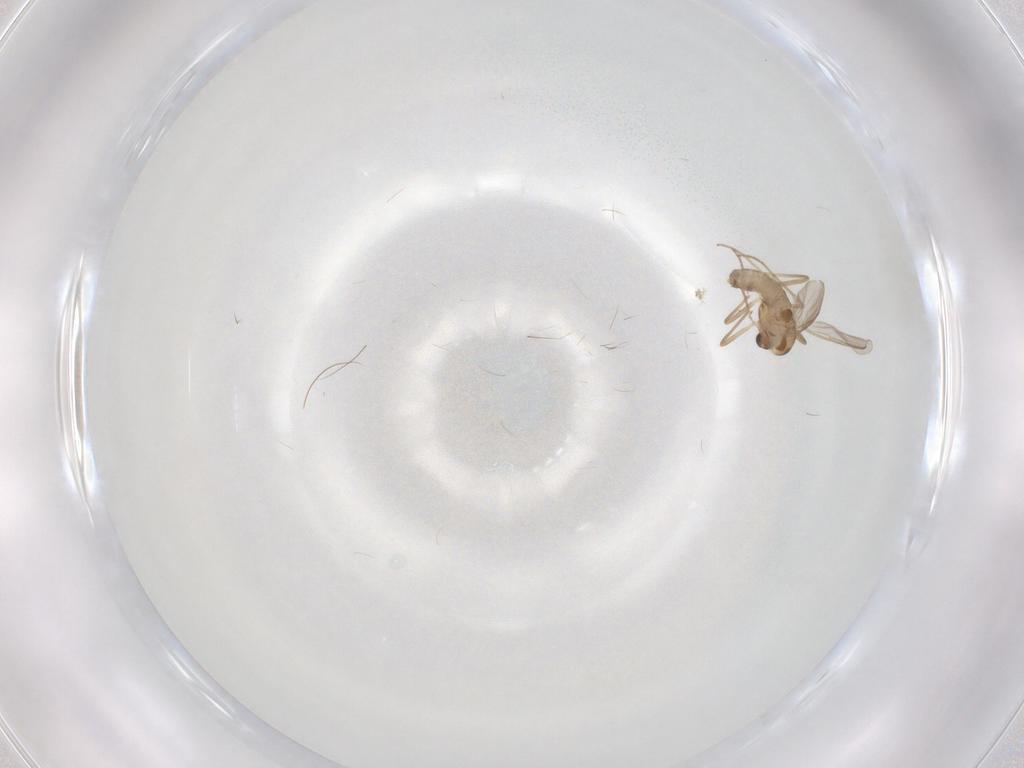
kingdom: Animalia
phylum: Arthropoda
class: Insecta
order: Diptera
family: Chironomidae
